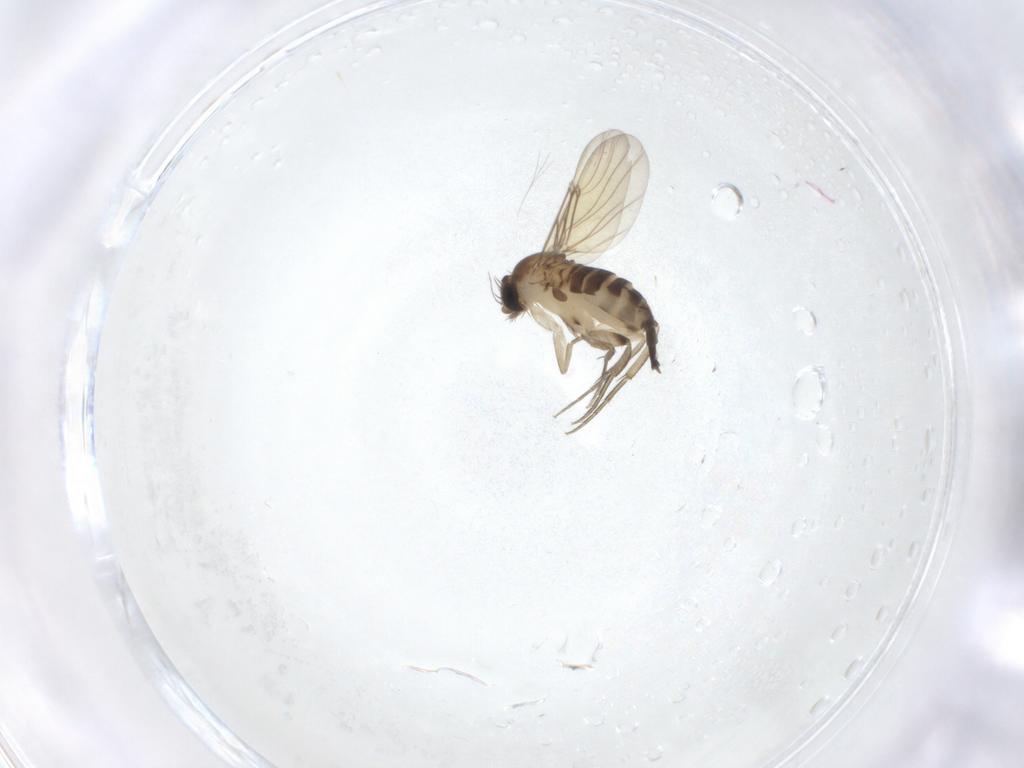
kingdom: Animalia
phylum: Arthropoda
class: Insecta
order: Diptera
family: Phoridae
